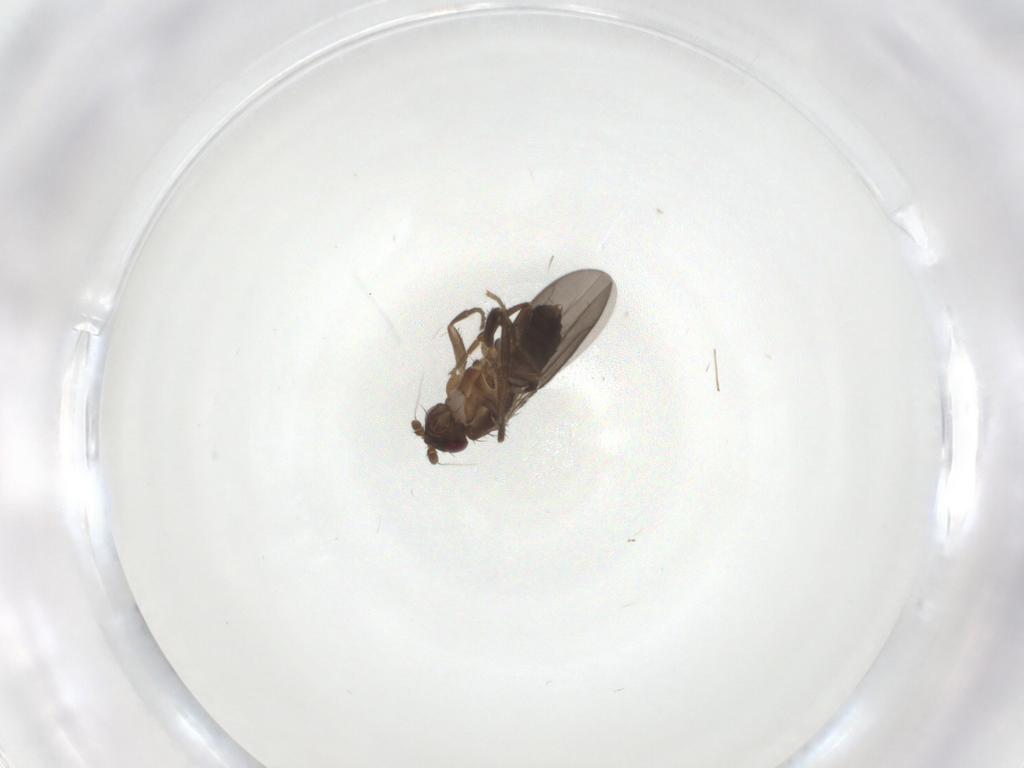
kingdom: Animalia
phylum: Arthropoda
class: Insecta
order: Diptera
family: Sphaeroceridae
